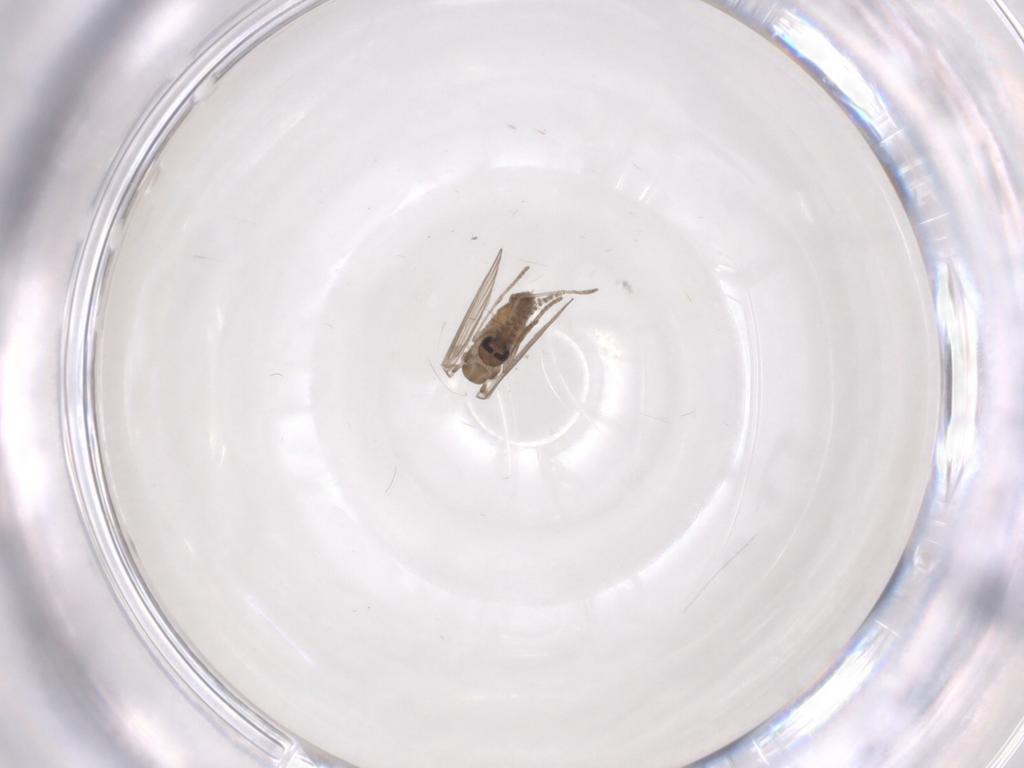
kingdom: Animalia
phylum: Arthropoda
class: Insecta
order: Diptera
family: Psychodidae
